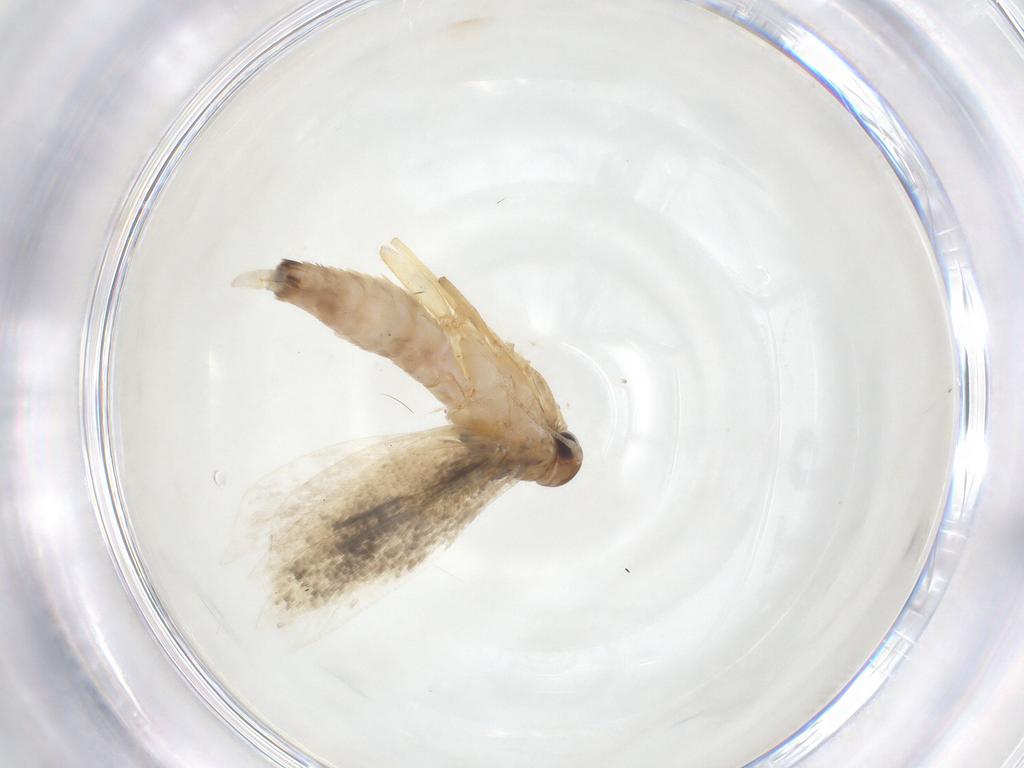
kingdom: Animalia
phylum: Arthropoda
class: Insecta
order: Lepidoptera
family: Gelechiidae
